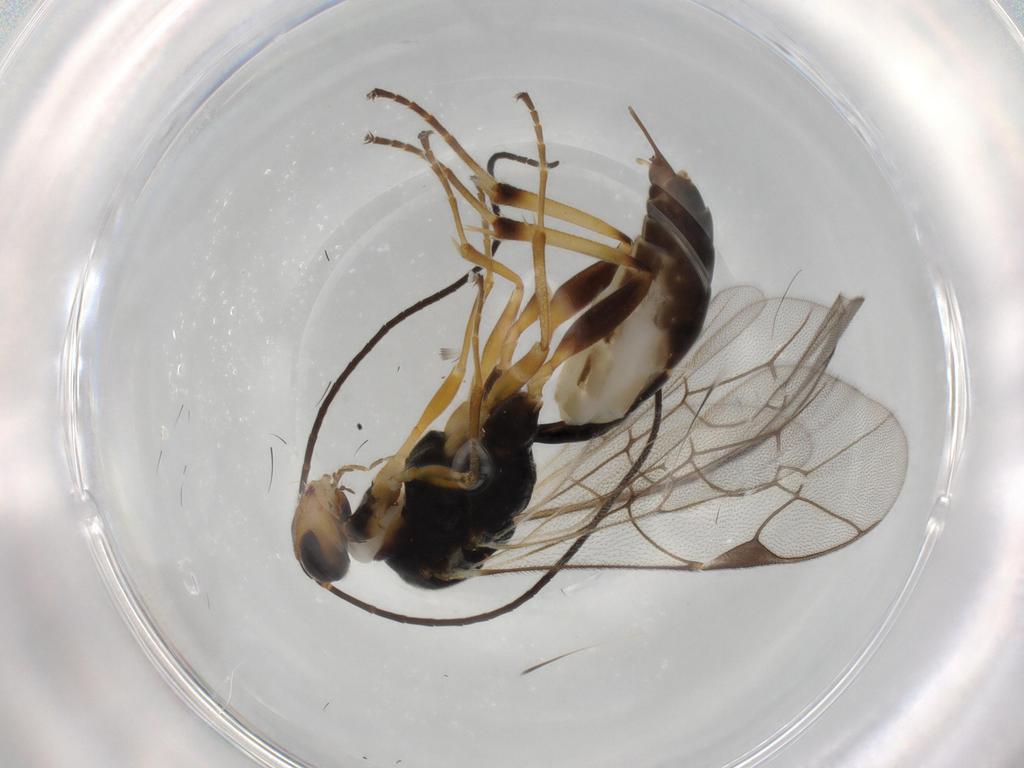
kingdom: Animalia
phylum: Arthropoda
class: Insecta
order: Hymenoptera
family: Ichneumonidae
